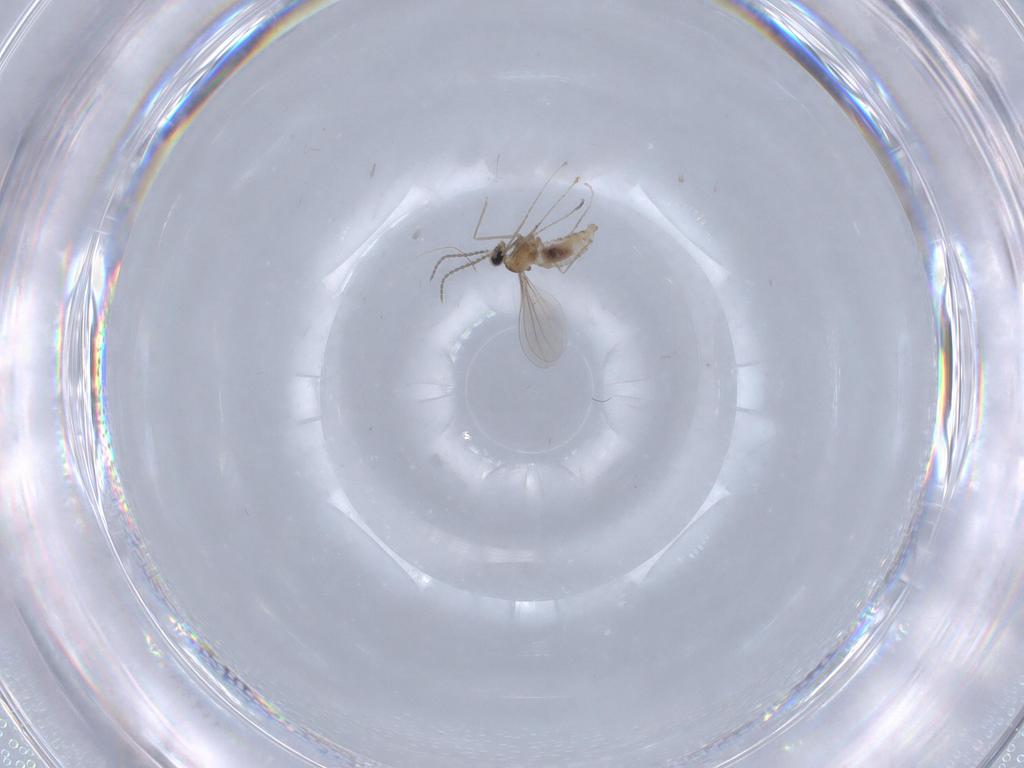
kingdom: Animalia
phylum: Arthropoda
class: Insecta
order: Diptera
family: Cecidomyiidae
